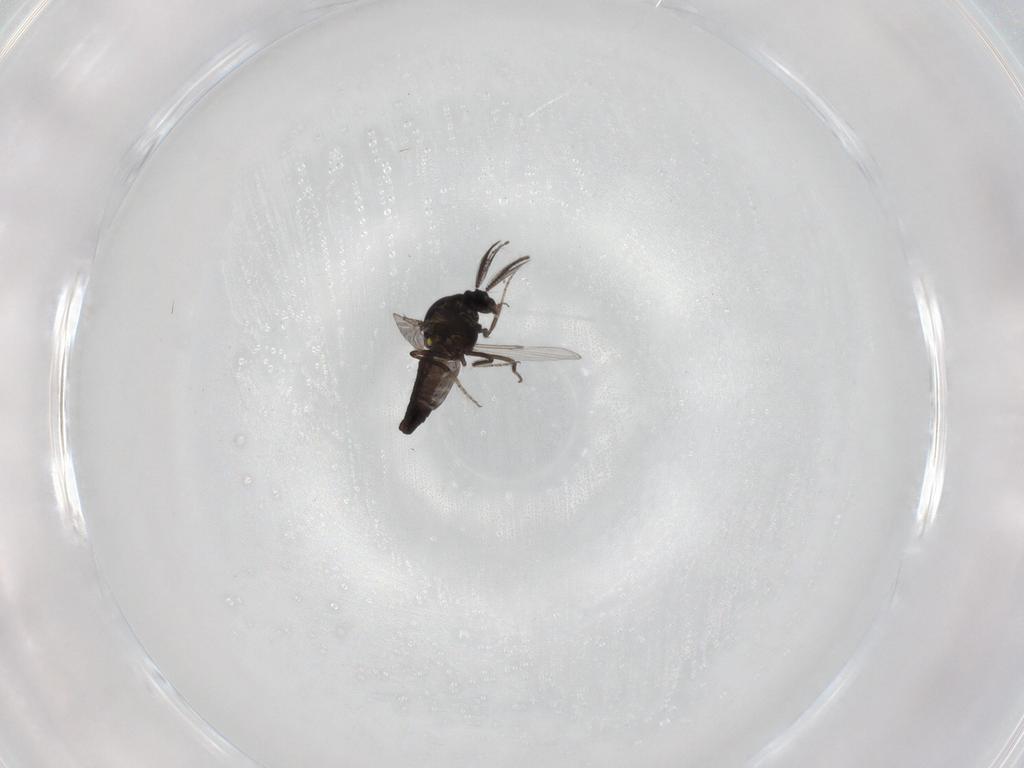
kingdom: Animalia
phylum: Arthropoda
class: Insecta
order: Diptera
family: Ceratopogonidae
